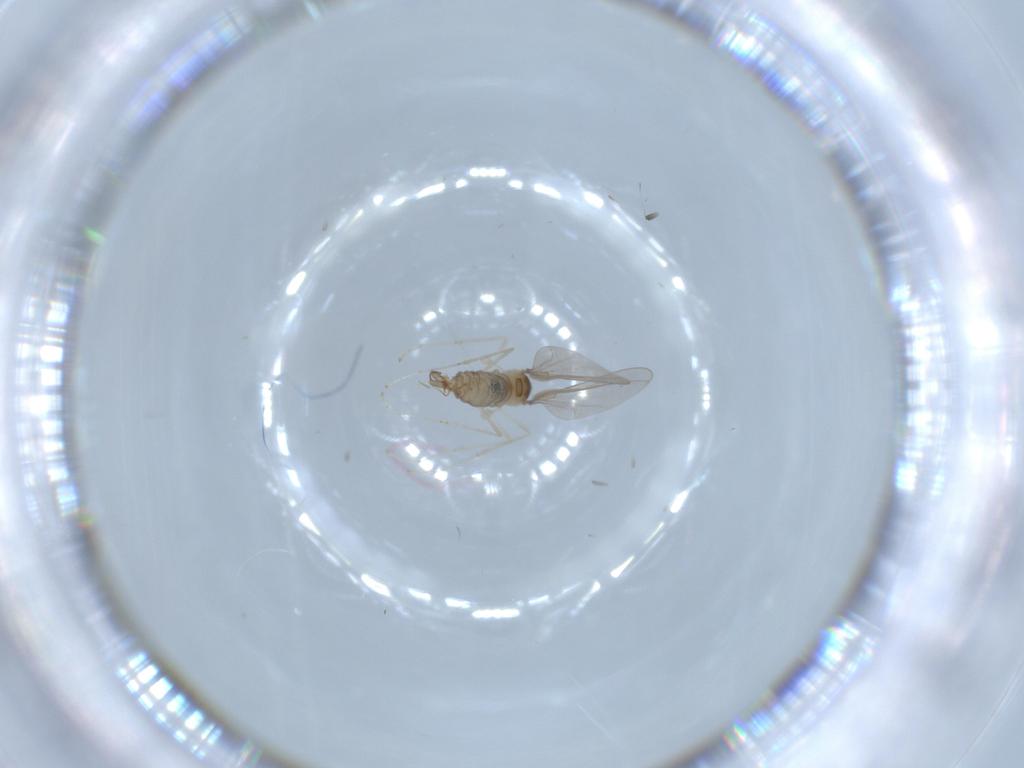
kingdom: Animalia
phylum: Arthropoda
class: Insecta
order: Diptera
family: Cecidomyiidae
